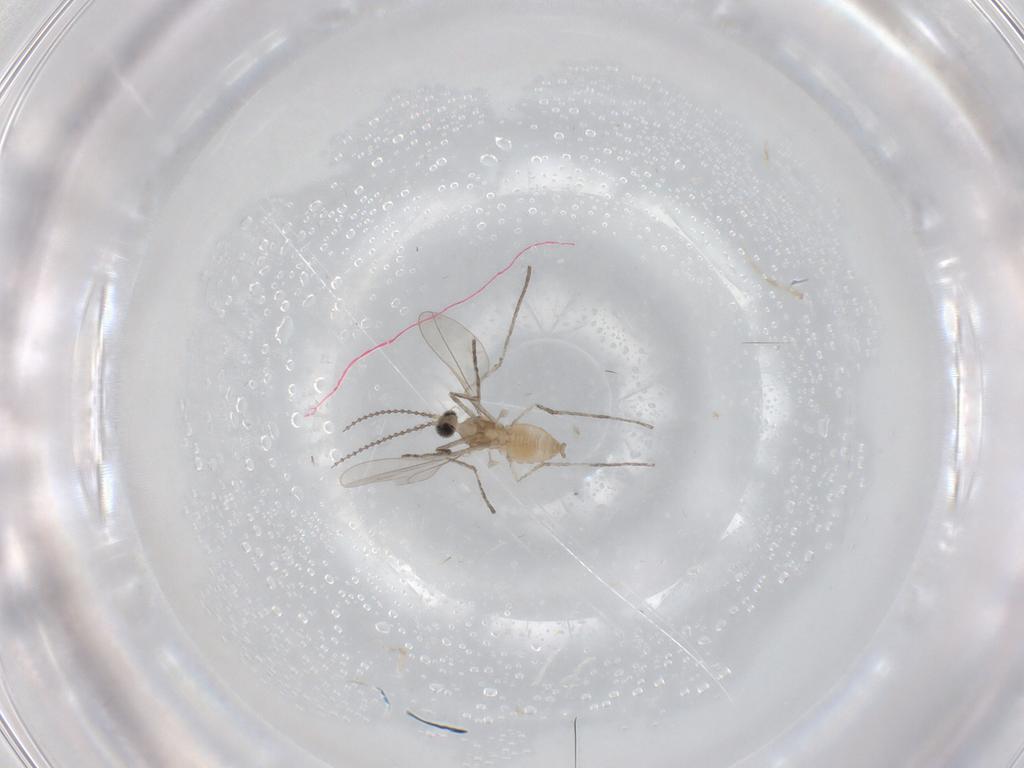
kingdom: Animalia
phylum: Arthropoda
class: Insecta
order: Diptera
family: Cecidomyiidae
